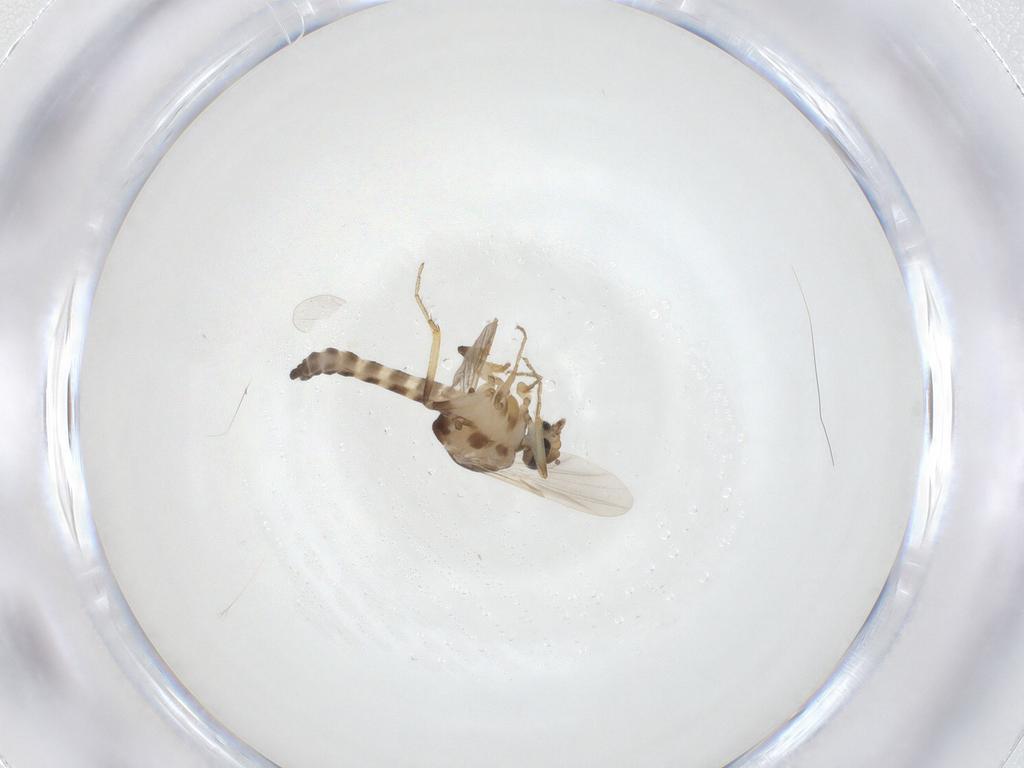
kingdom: Animalia
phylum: Arthropoda
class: Insecta
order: Diptera
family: Ceratopogonidae
